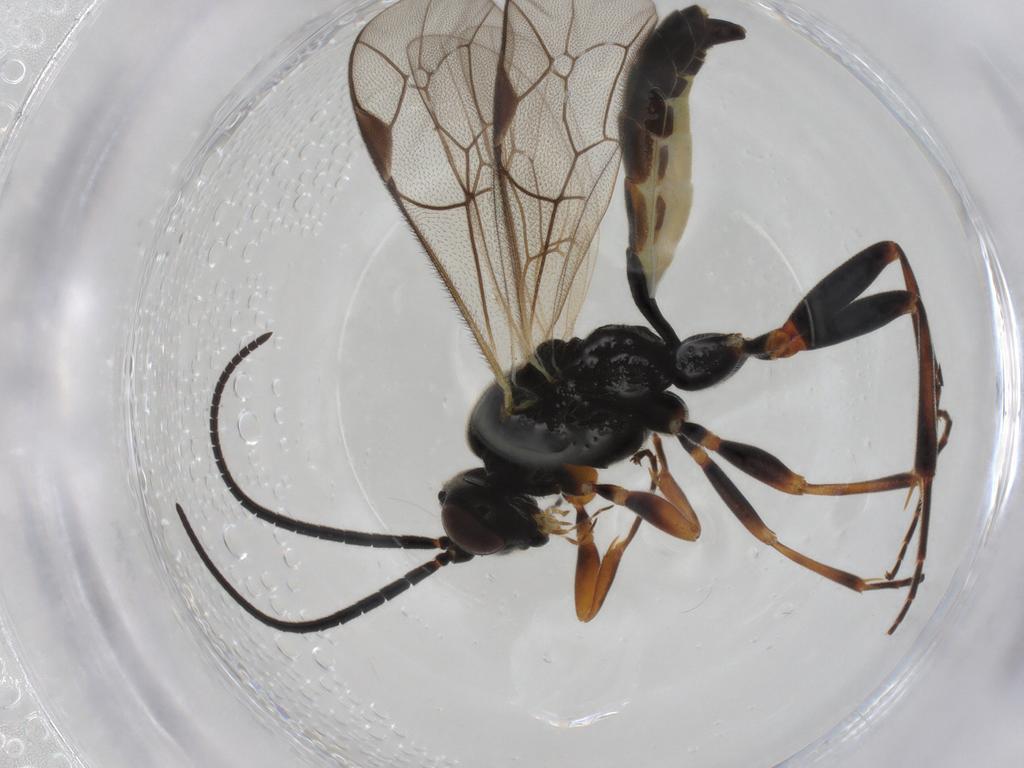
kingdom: Animalia
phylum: Arthropoda
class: Insecta
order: Hymenoptera
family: Ichneumonidae
